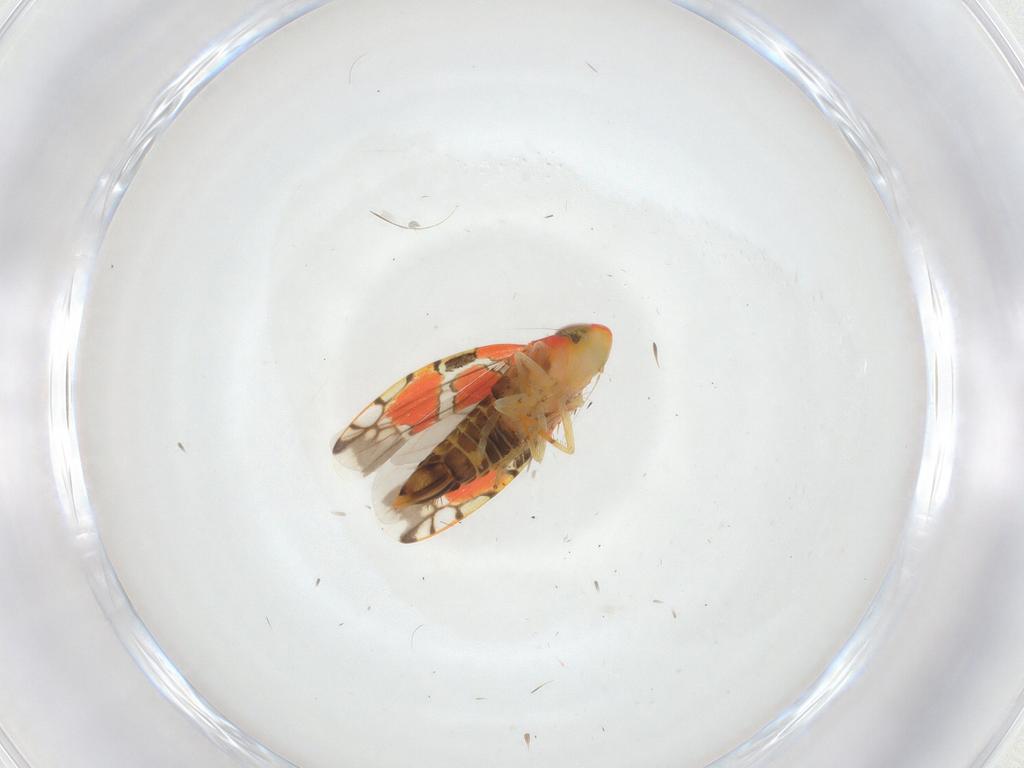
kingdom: Animalia
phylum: Arthropoda
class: Insecta
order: Hemiptera
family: Cicadellidae
